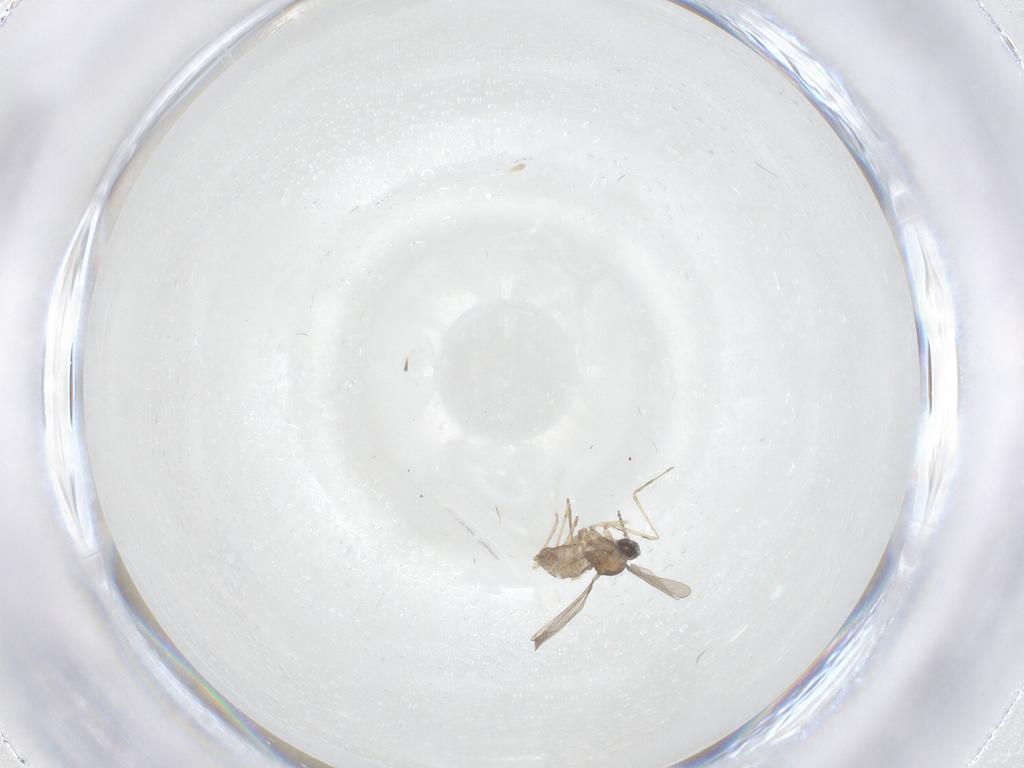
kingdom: Animalia
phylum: Arthropoda
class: Insecta
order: Diptera
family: Cecidomyiidae
